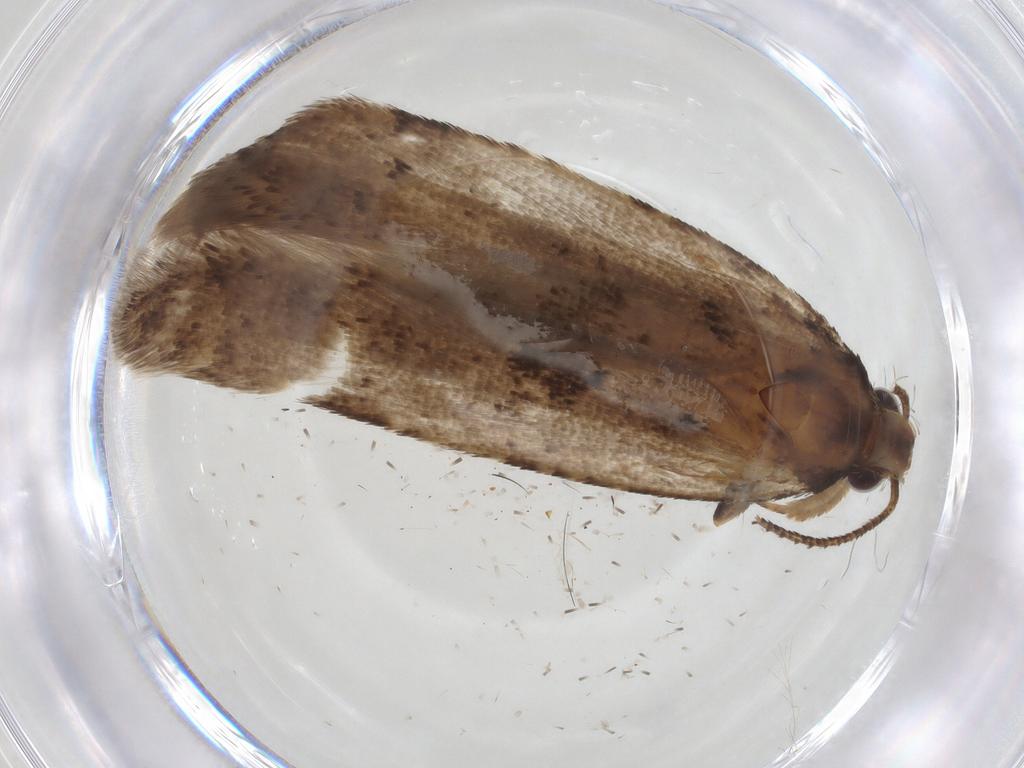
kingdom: Animalia
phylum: Arthropoda
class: Insecta
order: Lepidoptera
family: Gelechiidae
